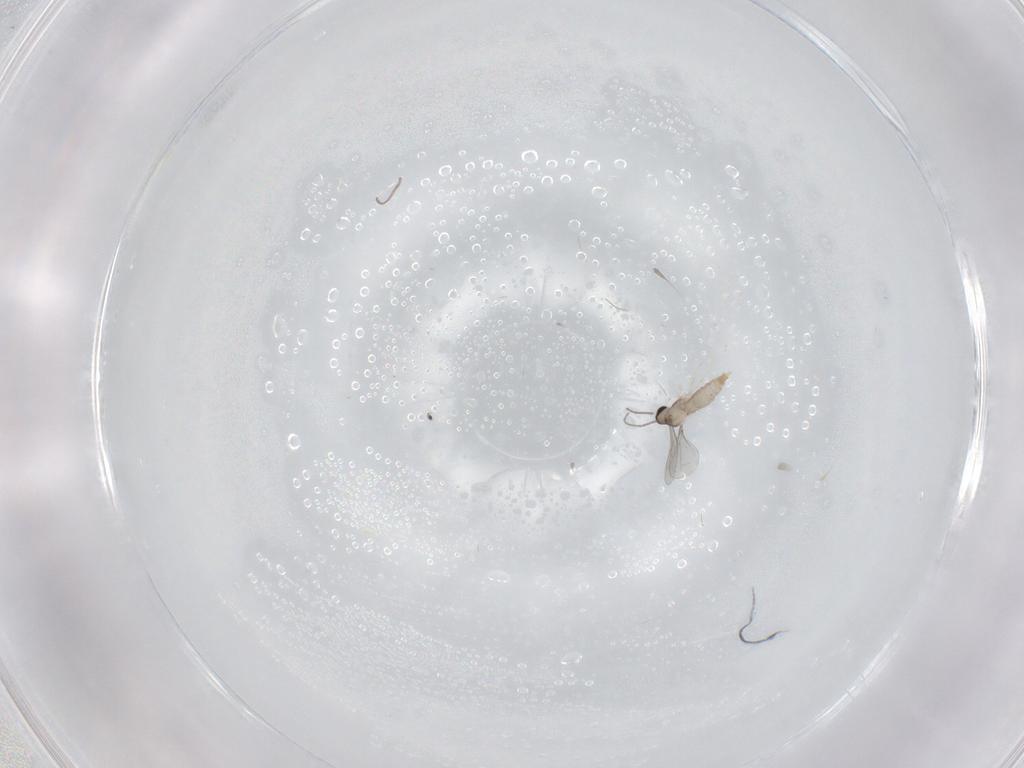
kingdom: Animalia
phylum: Arthropoda
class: Insecta
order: Diptera
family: Cecidomyiidae
